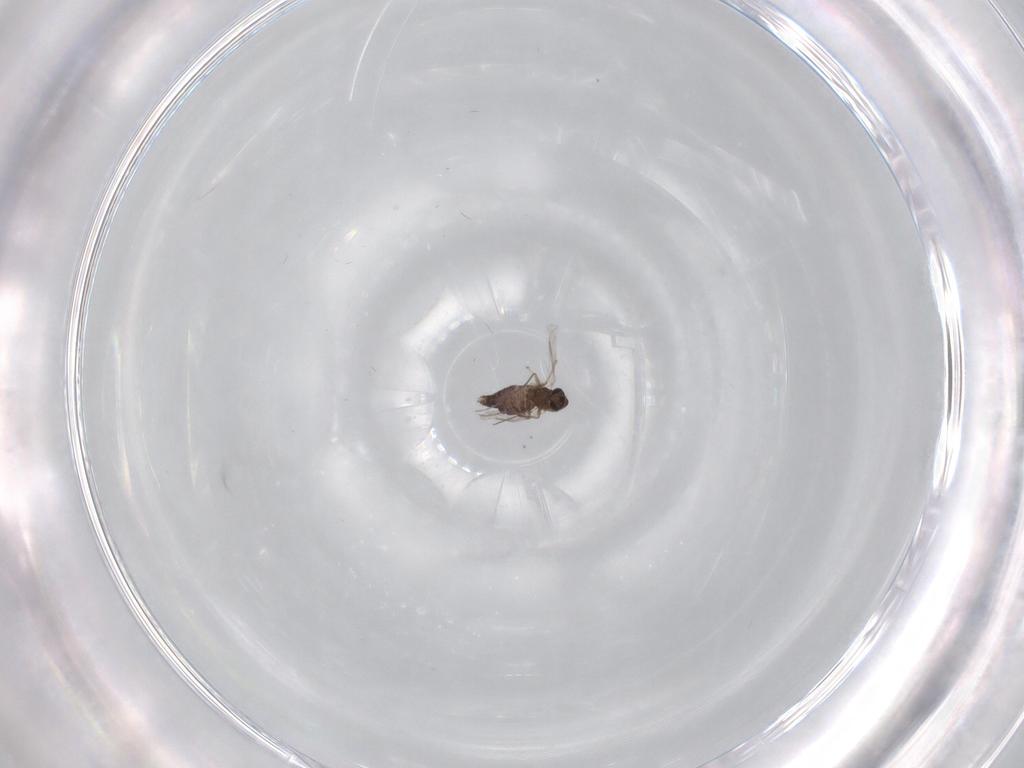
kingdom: Animalia
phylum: Arthropoda
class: Insecta
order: Diptera
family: Chironomidae
